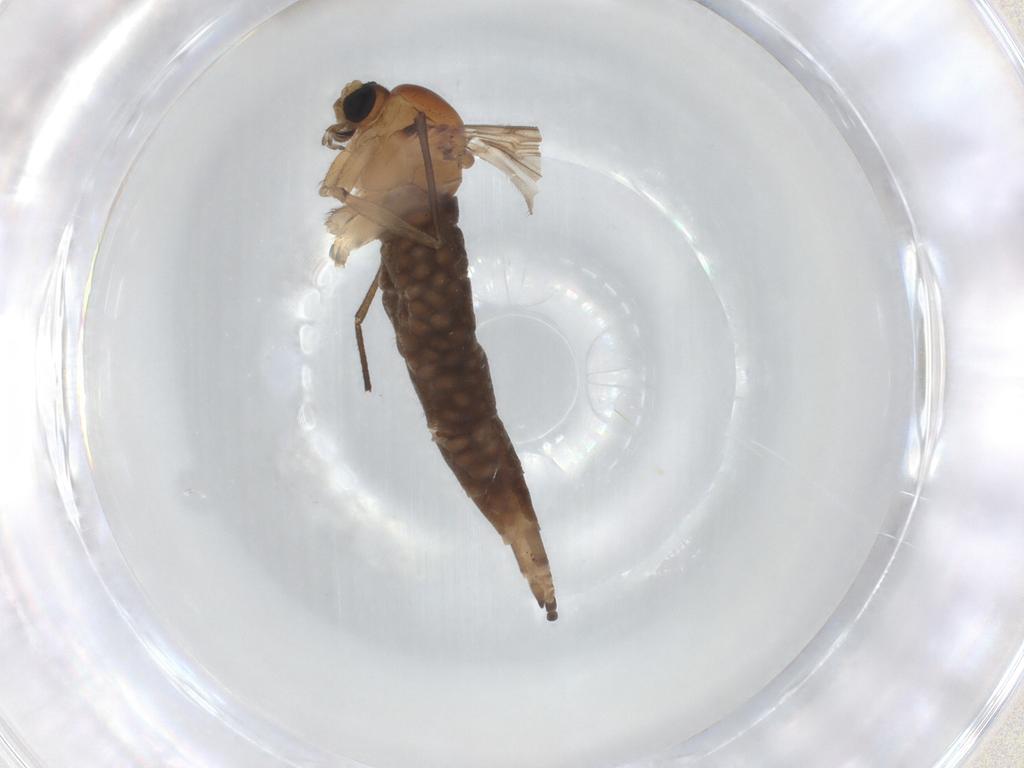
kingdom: Animalia
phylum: Arthropoda
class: Insecta
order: Diptera
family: Sciaridae
